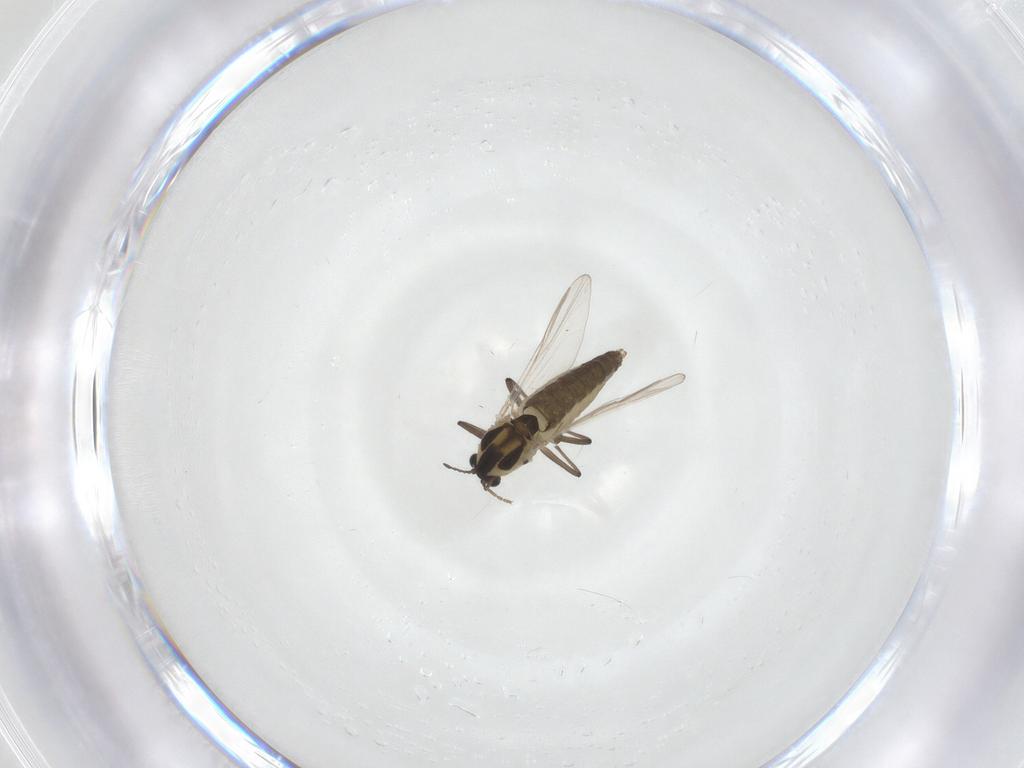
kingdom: Animalia
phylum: Arthropoda
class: Insecta
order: Diptera
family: Chironomidae
